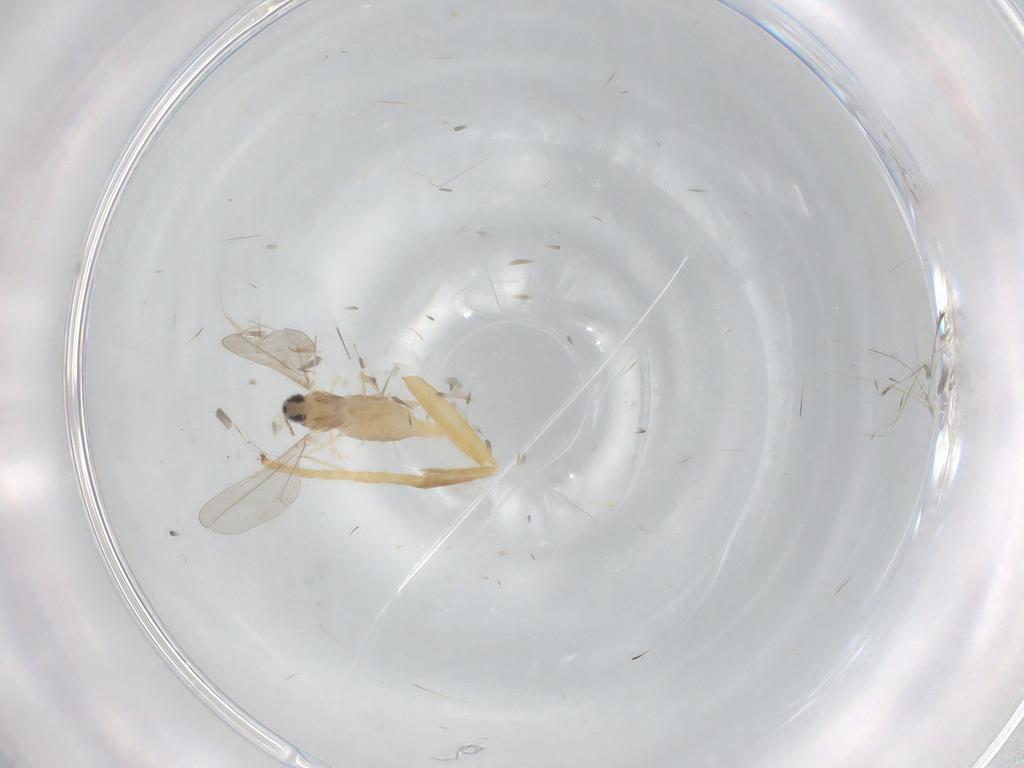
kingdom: Animalia
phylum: Arthropoda
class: Insecta
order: Diptera
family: Cecidomyiidae
